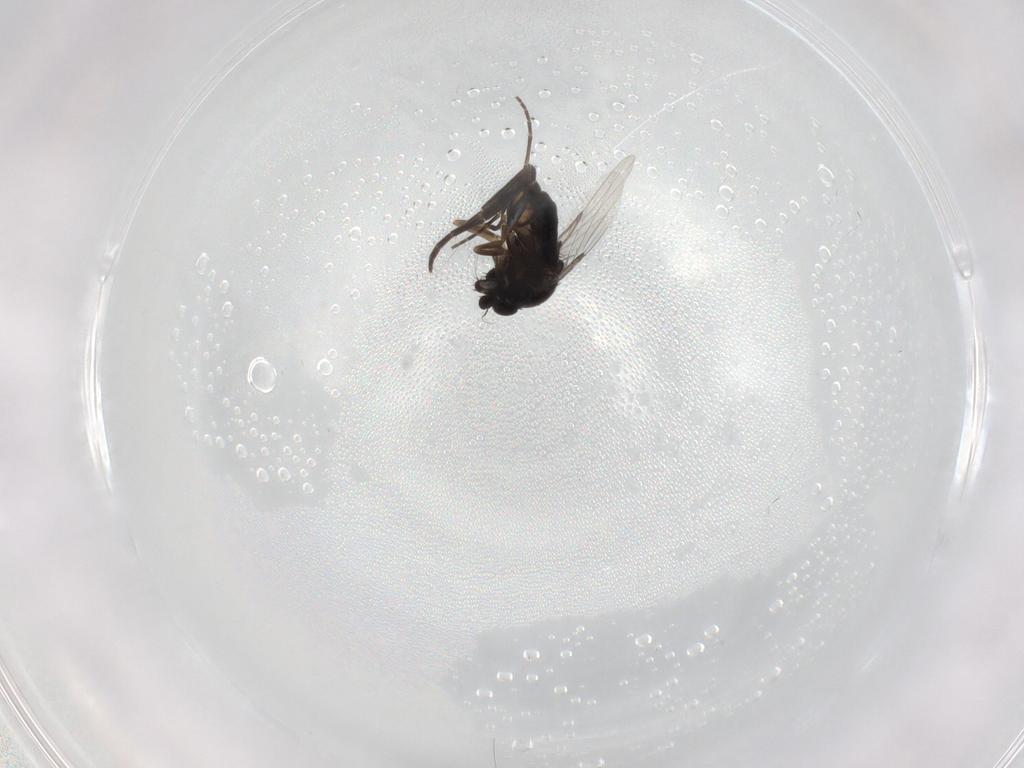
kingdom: Animalia
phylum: Arthropoda
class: Insecta
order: Diptera
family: Phoridae
